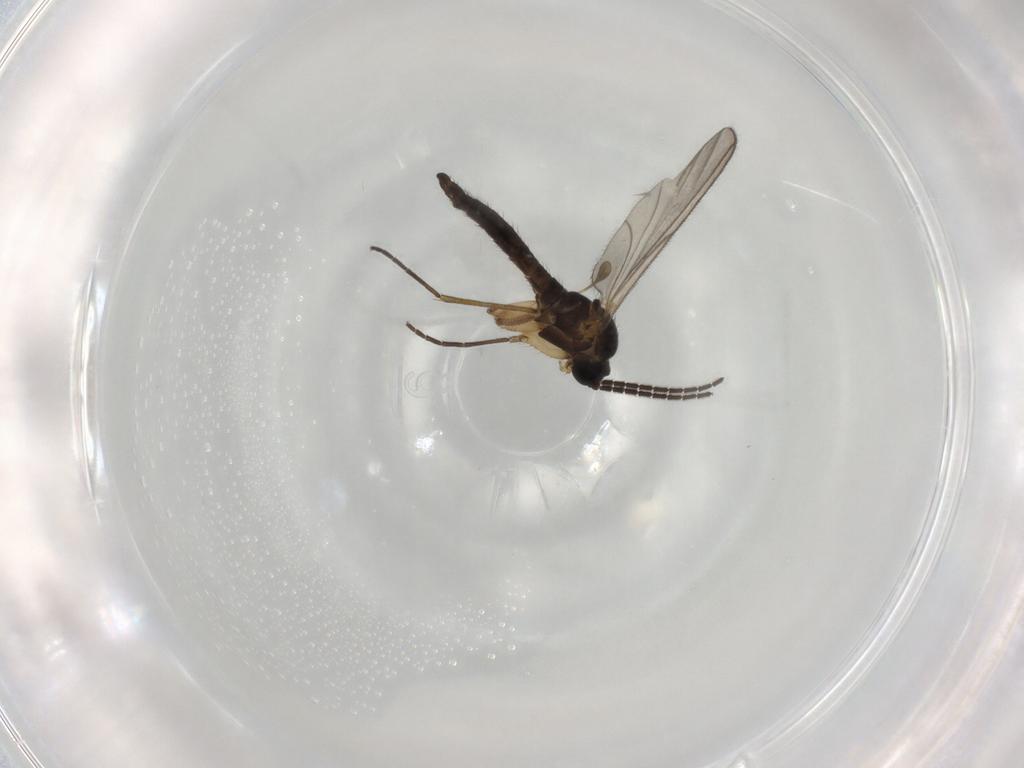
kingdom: Animalia
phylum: Arthropoda
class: Insecta
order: Diptera
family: Sciaridae
